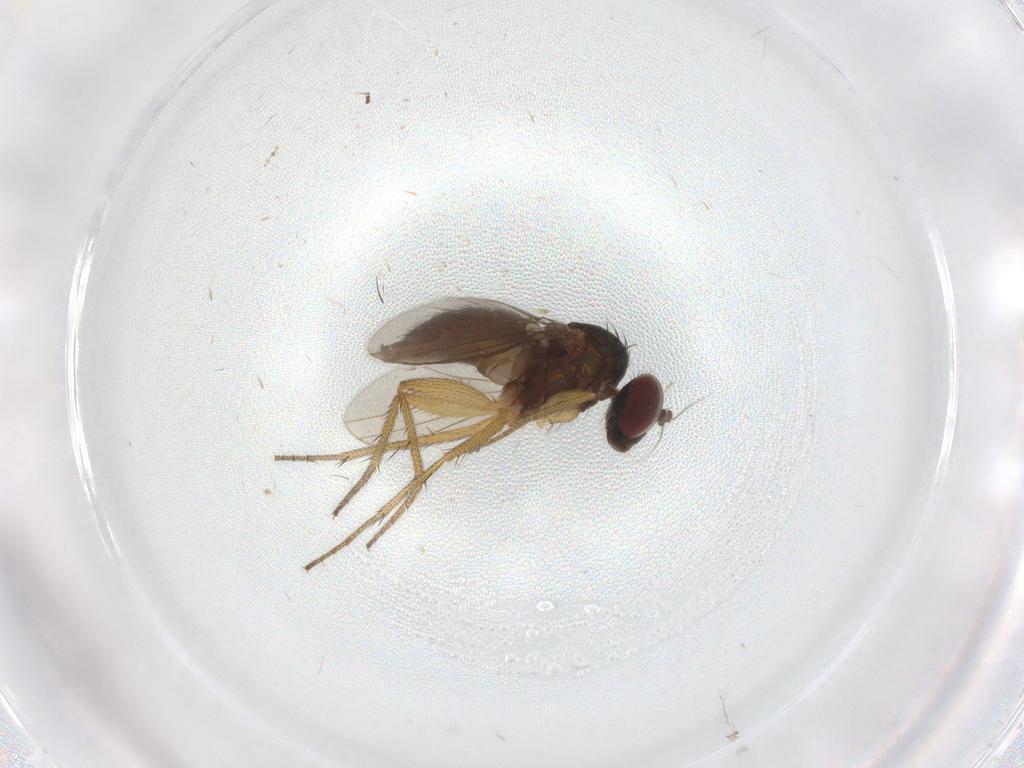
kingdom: Animalia
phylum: Arthropoda
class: Insecta
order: Diptera
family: Dolichopodidae
